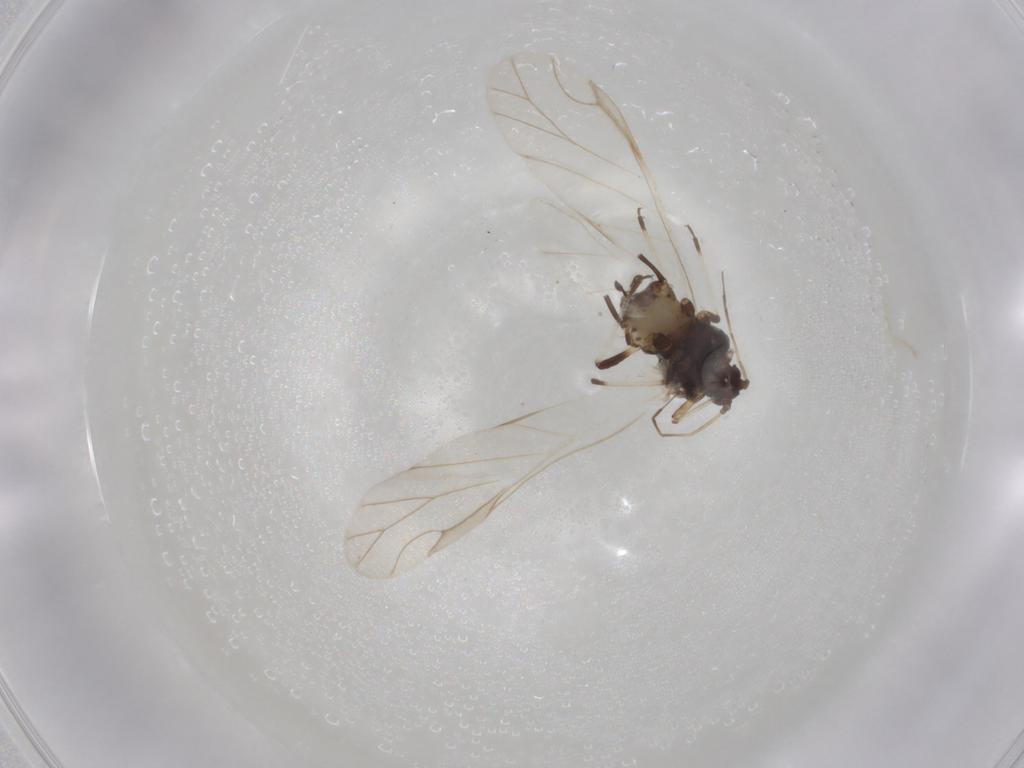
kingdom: Animalia
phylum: Arthropoda
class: Insecta
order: Hemiptera
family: Aphididae
